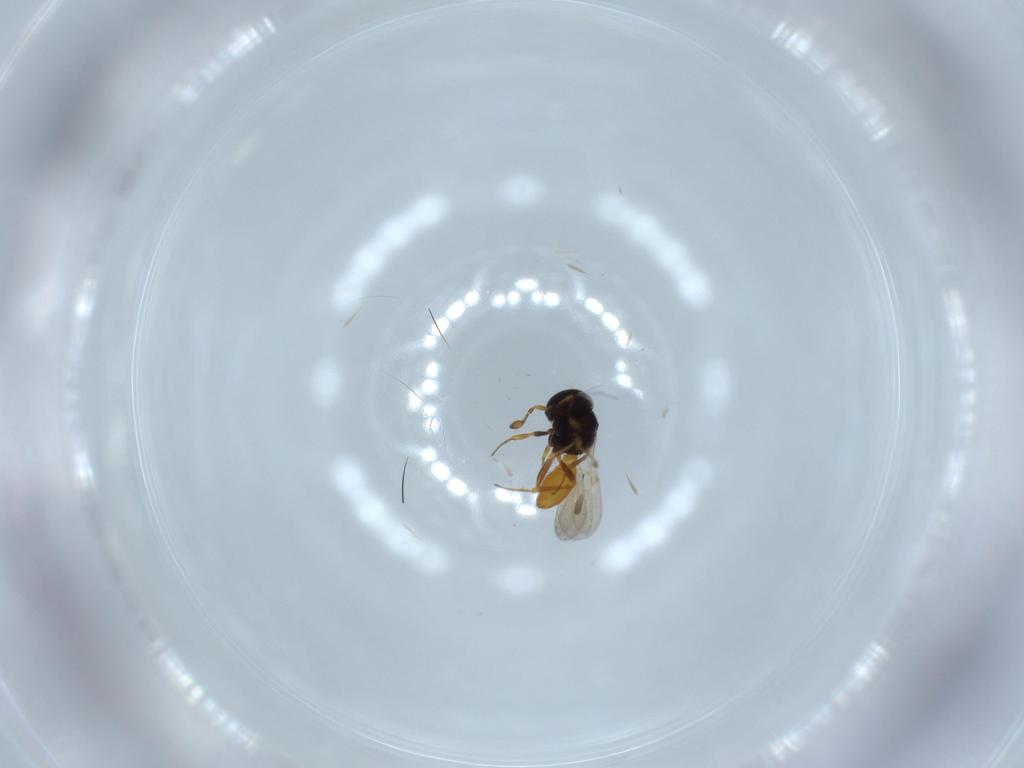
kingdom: Animalia
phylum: Arthropoda
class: Insecta
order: Hymenoptera
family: Scelionidae
